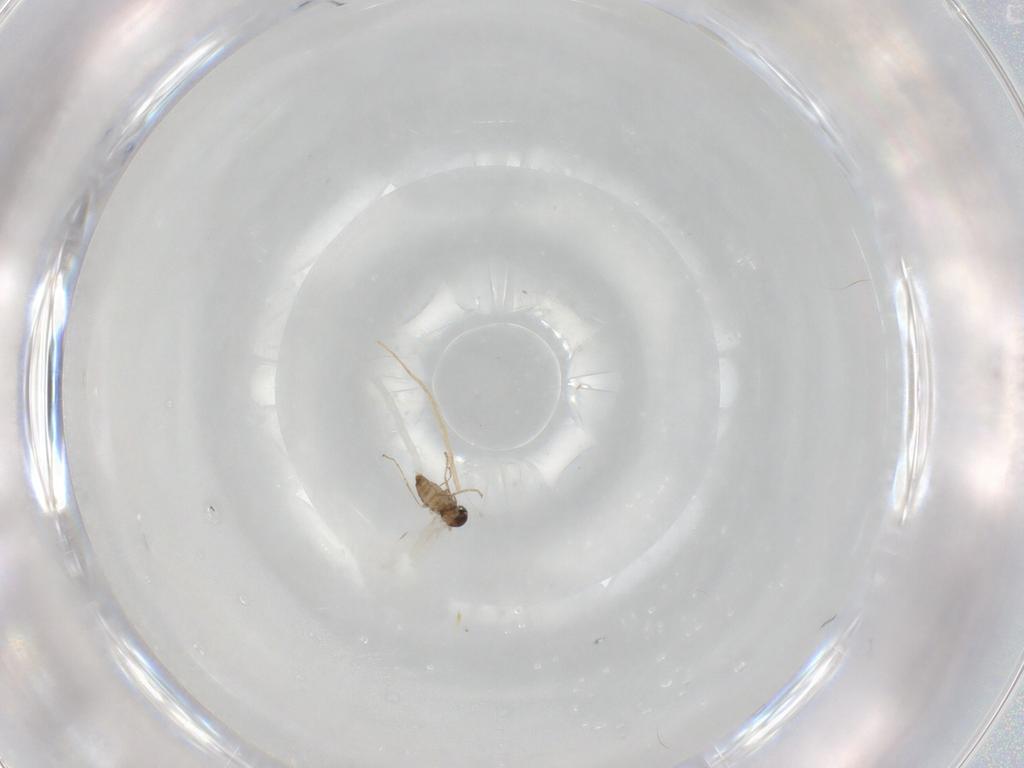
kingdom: Animalia
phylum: Arthropoda
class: Insecta
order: Diptera
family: Cecidomyiidae
